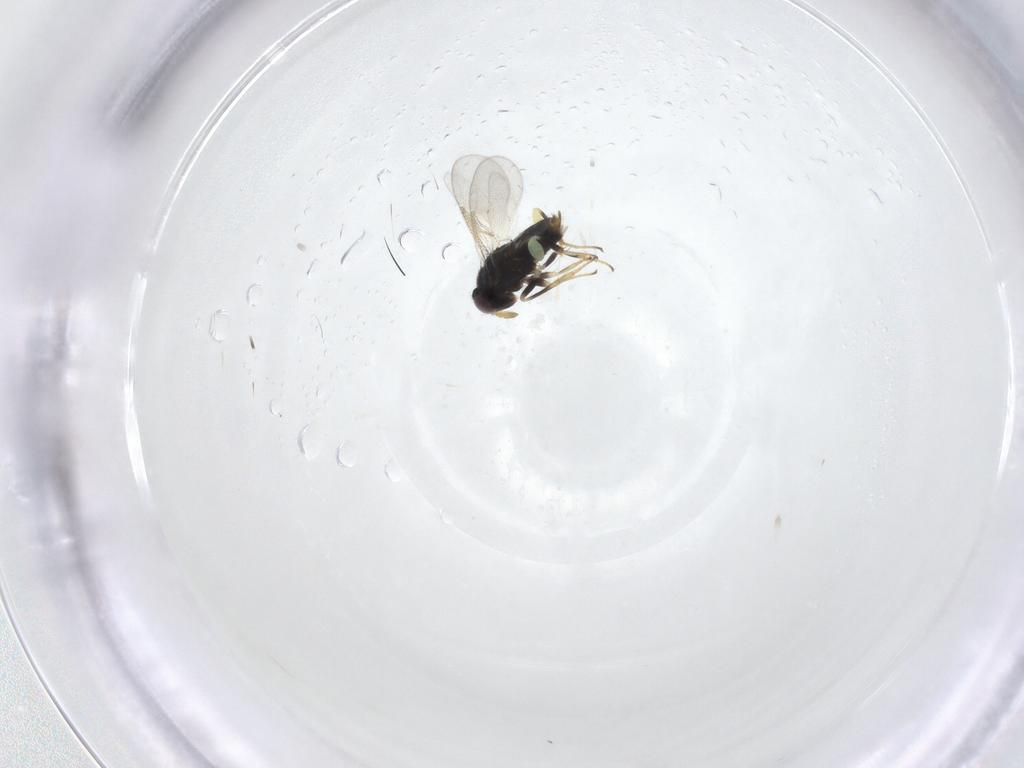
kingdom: Animalia
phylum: Arthropoda
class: Insecta
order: Hymenoptera
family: Aphelinidae
